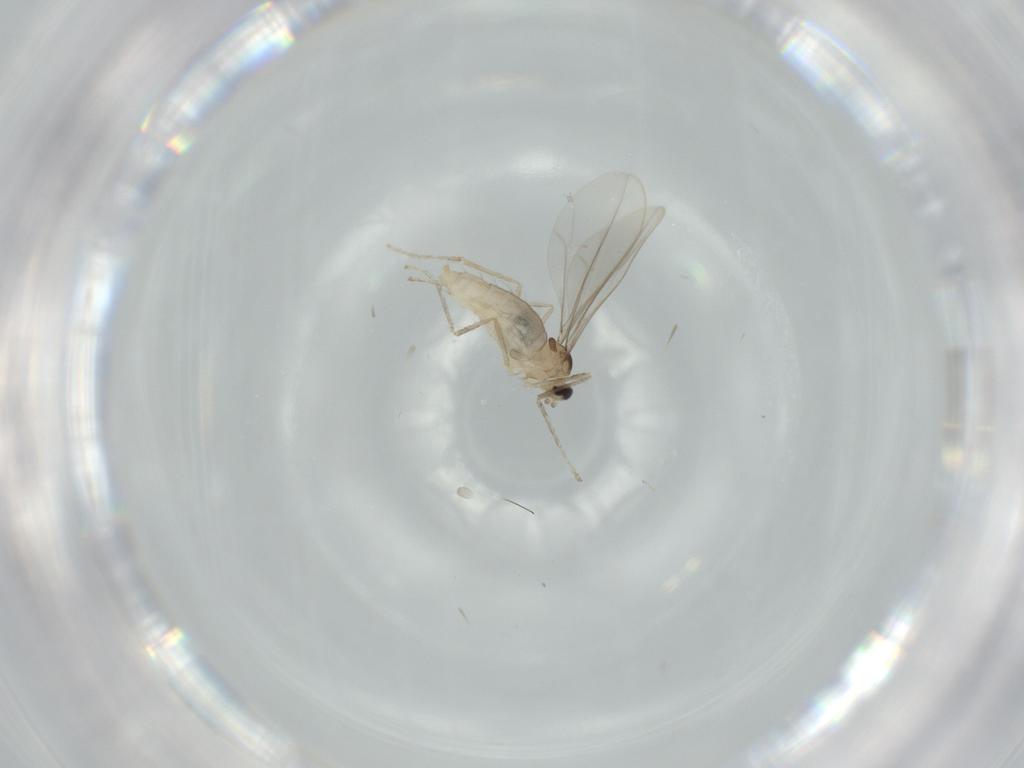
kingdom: Animalia
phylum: Arthropoda
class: Insecta
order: Diptera
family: Cecidomyiidae
